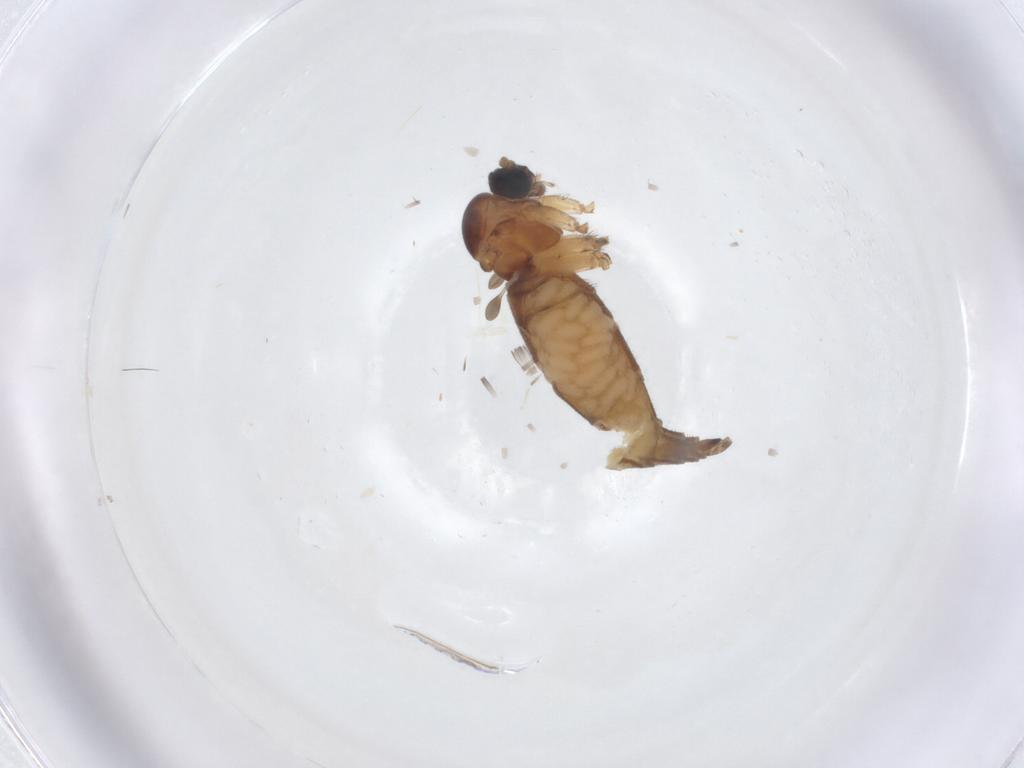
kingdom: Animalia
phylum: Arthropoda
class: Insecta
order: Diptera
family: Sciaridae
